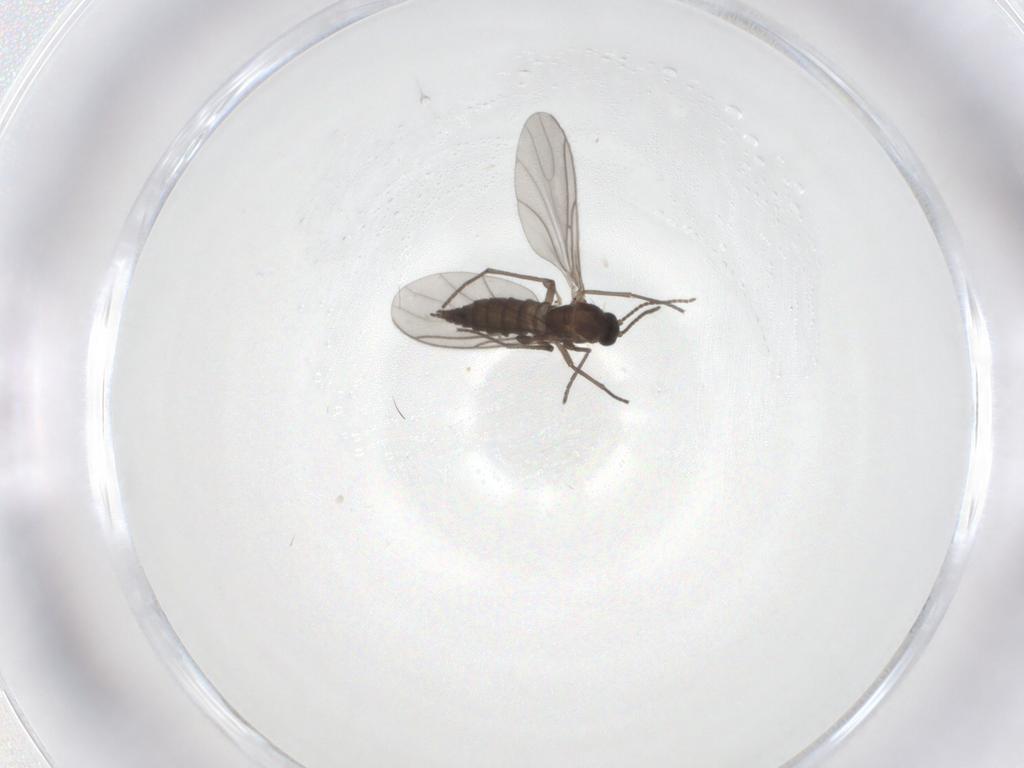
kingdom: Animalia
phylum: Arthropoda
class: Insecta
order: Diptera
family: Sciaridae
